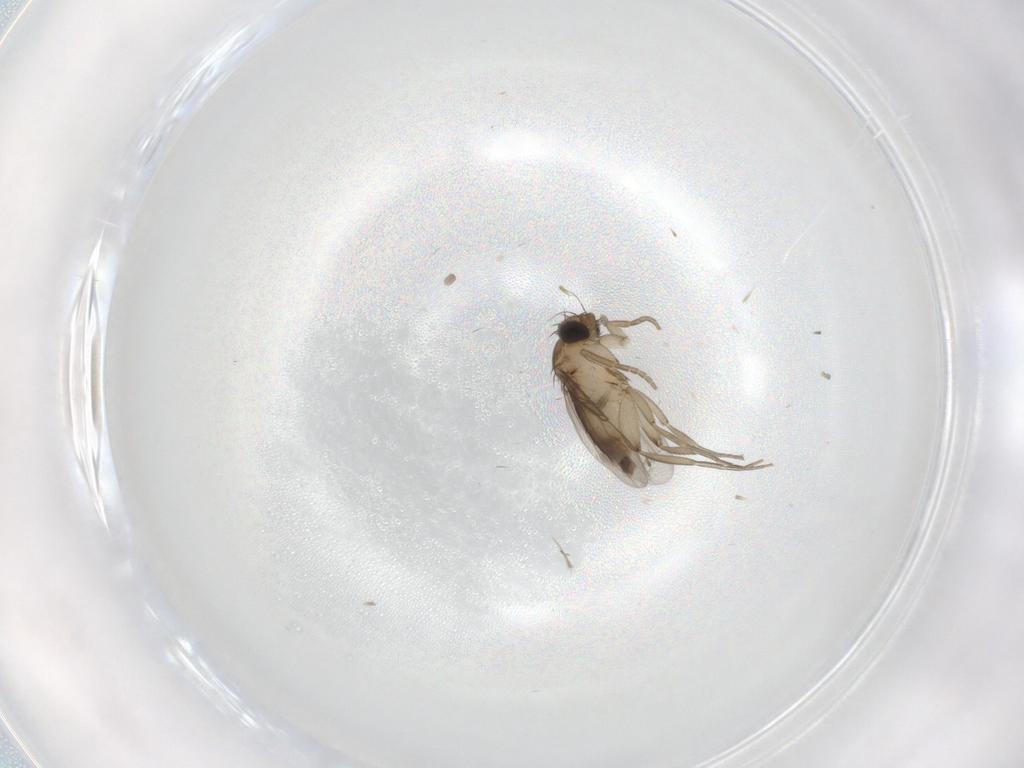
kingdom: Animalia
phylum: Arthropoda
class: Insecta
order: Diptera
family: Phoridae
